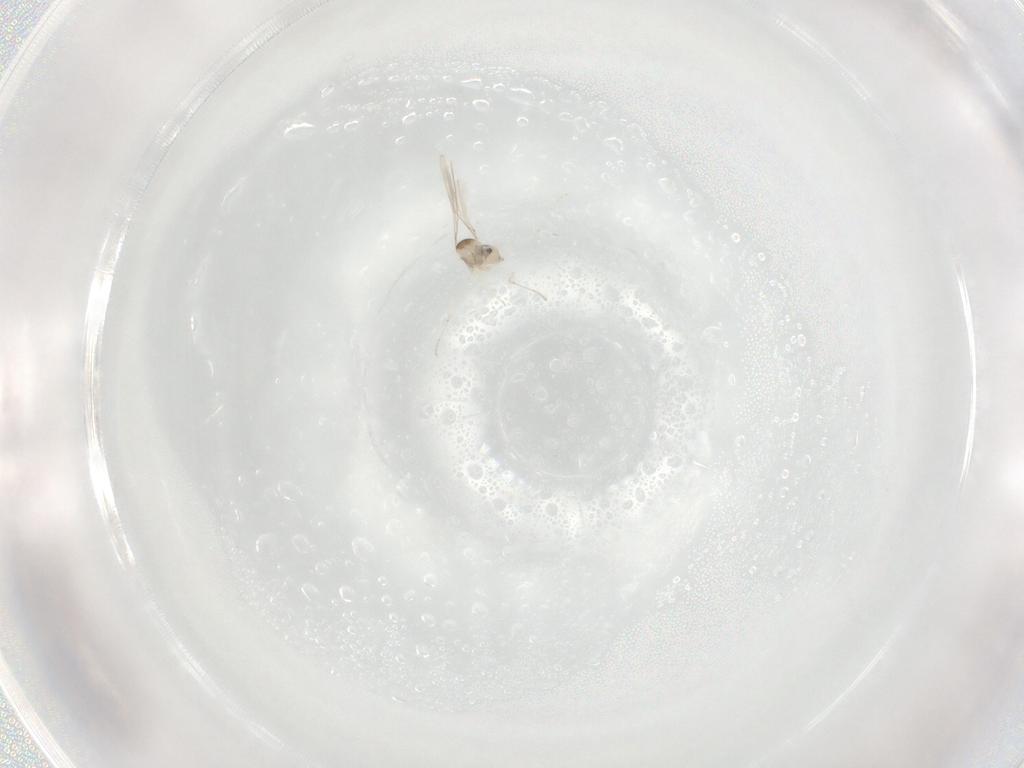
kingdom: Animalia
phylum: Arthropoda
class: Insecta
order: Diptera
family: Cecidomyiidae
